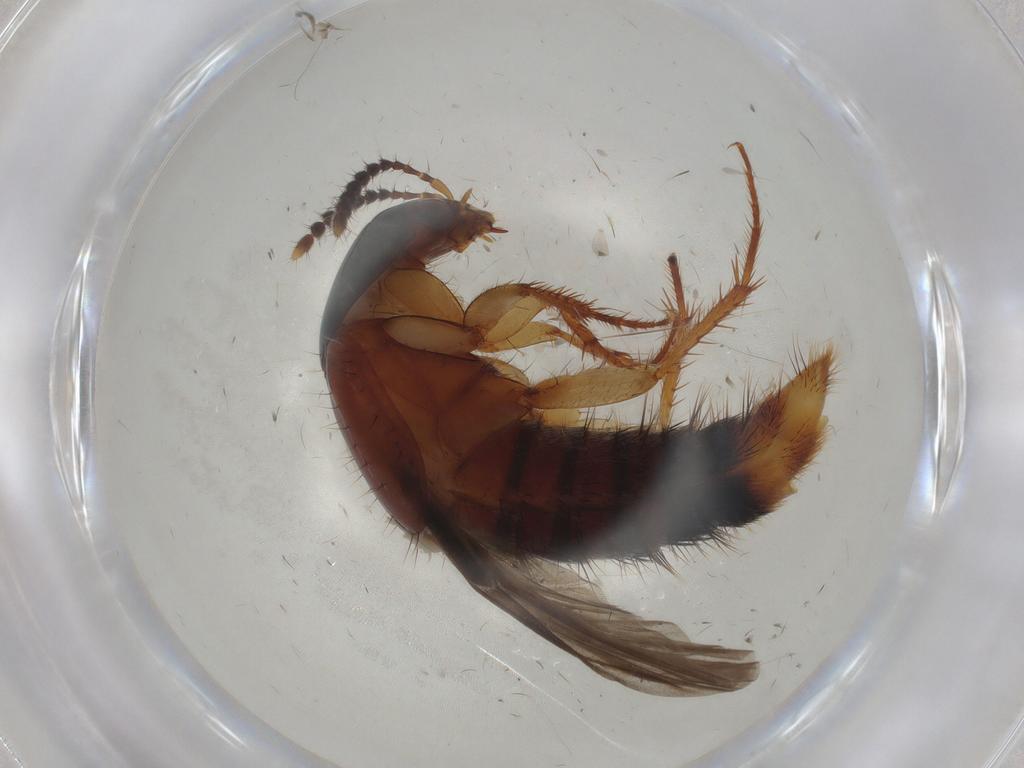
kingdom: Animalia
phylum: Arthropoda
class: Insecta
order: Coleoptera
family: Staphylinidae
